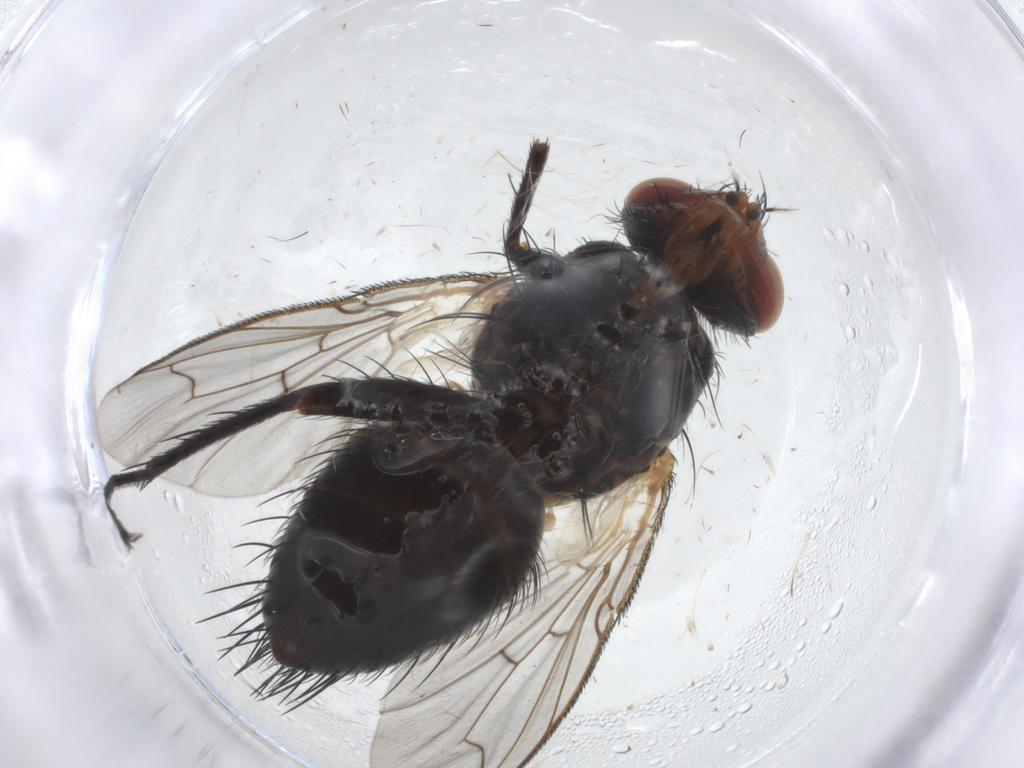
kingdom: Animalia
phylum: Arthropoda
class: Insecta
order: Diptera
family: Tachinidae
